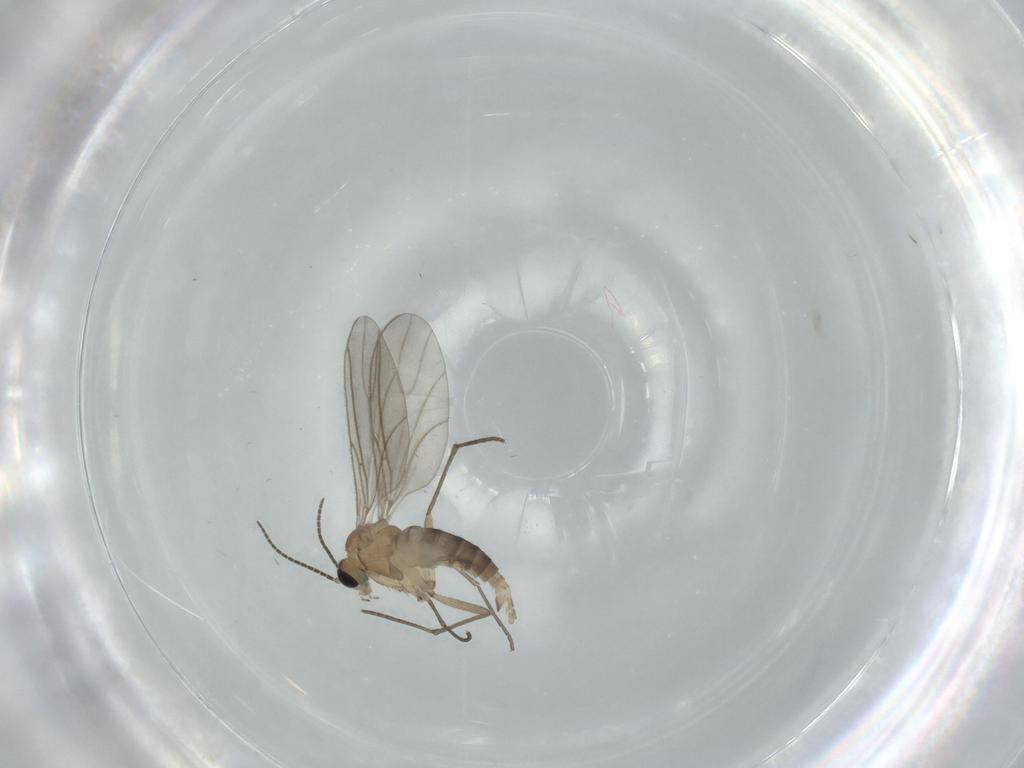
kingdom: Animalia
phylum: Arthropoda
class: Insecta
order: Diptera
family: Sciaridae
